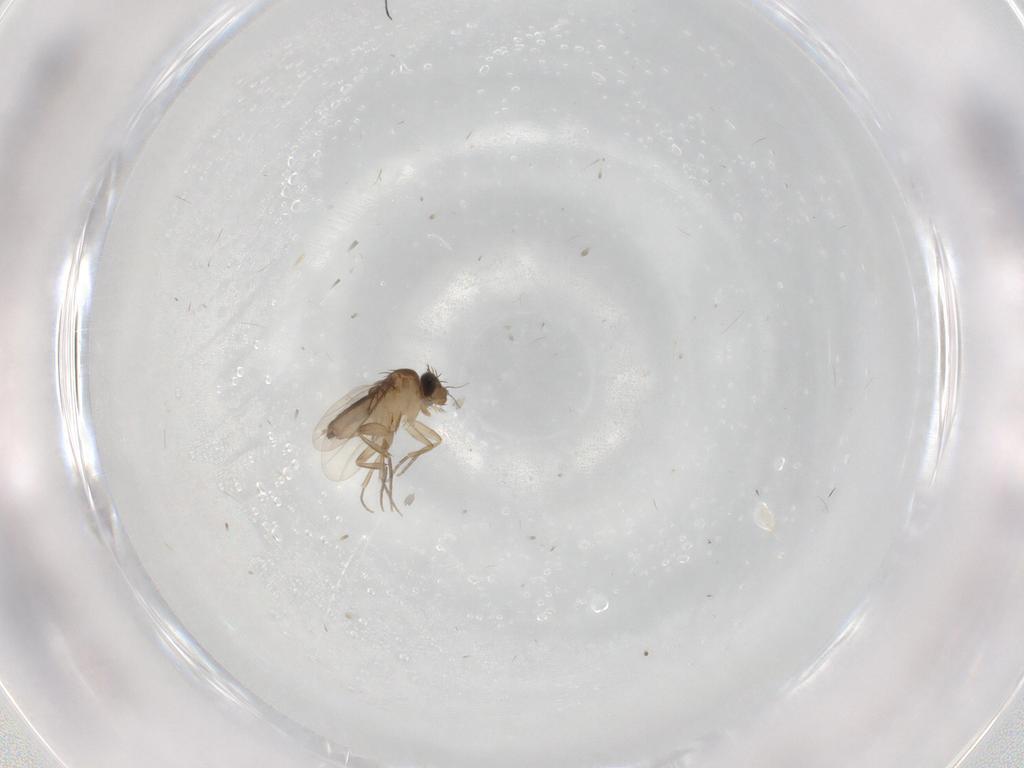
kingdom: Animalia
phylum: Arthropoda
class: Insecta
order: Diptera
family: Phoridae
